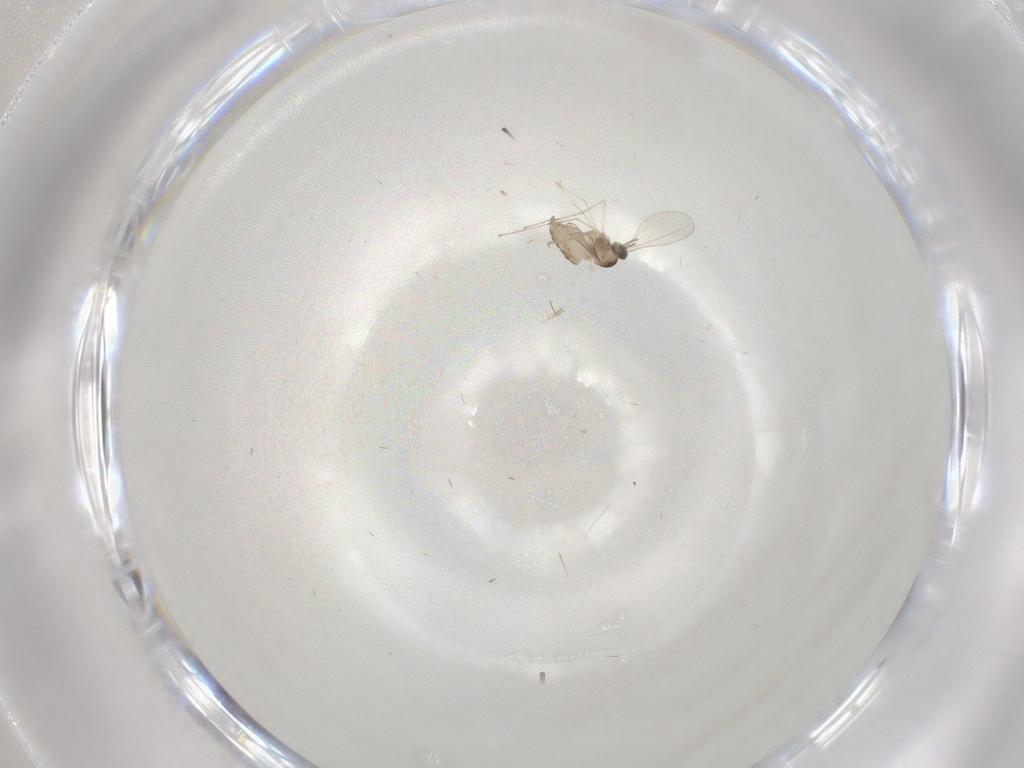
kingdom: Animalia
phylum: Arthropoda
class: Insecta
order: Diptera
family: Cecidomyiidae
